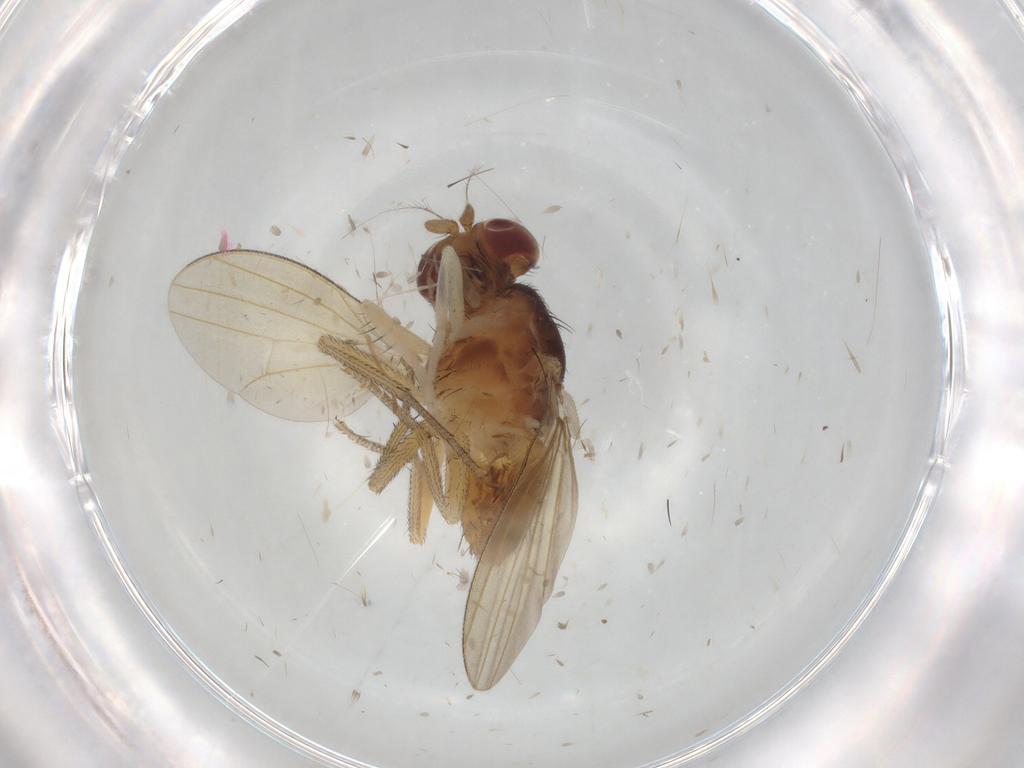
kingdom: Animalia
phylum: Arthropoda
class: Insecta
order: Diptera
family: Lauxaniidae
